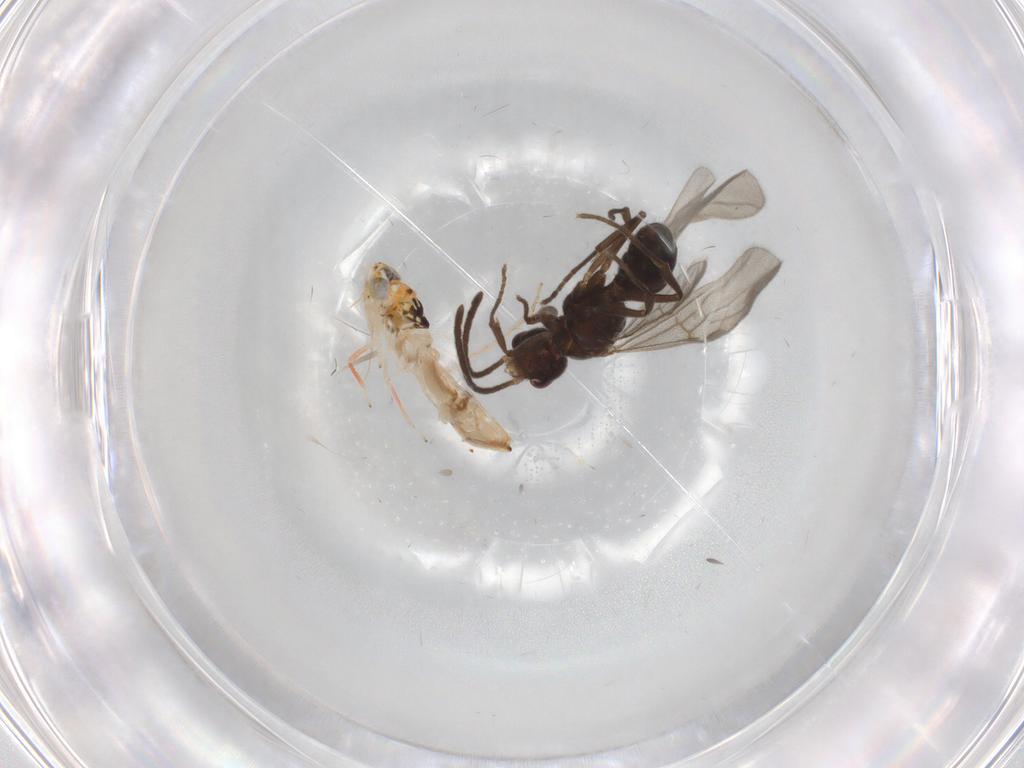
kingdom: Animalia
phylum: Arthropoda
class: Insecta
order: Hymenoptera
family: Formicidae
